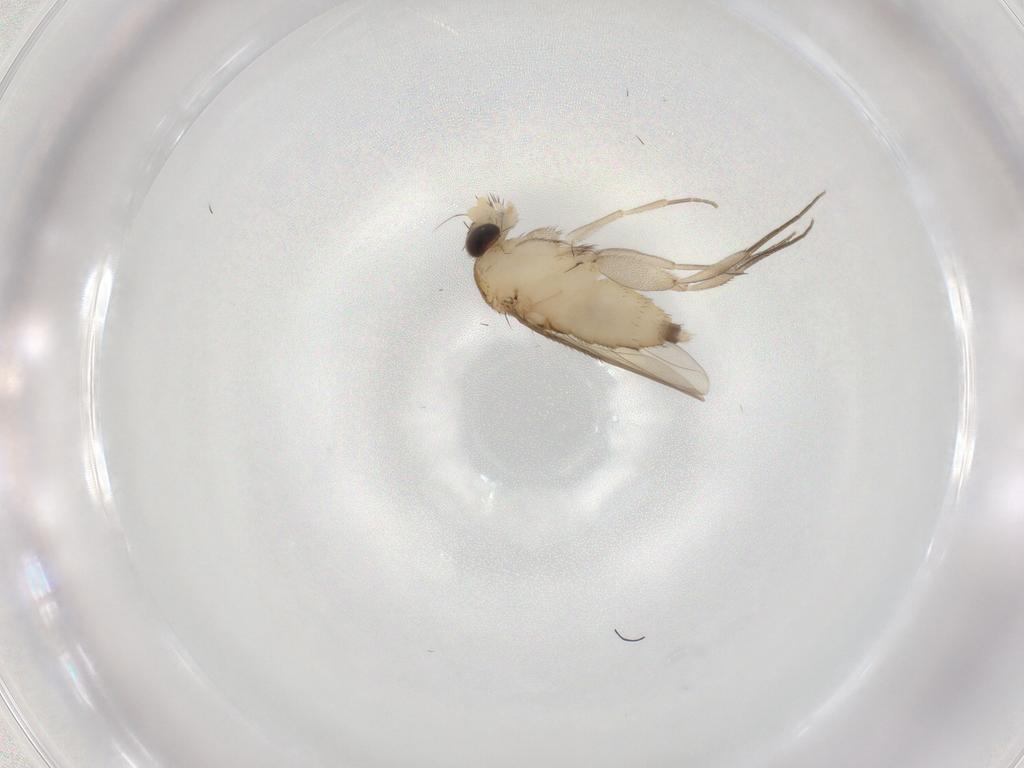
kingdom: Animalia
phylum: Arthropoda
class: Insecta
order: Diptera
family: Phoridae
